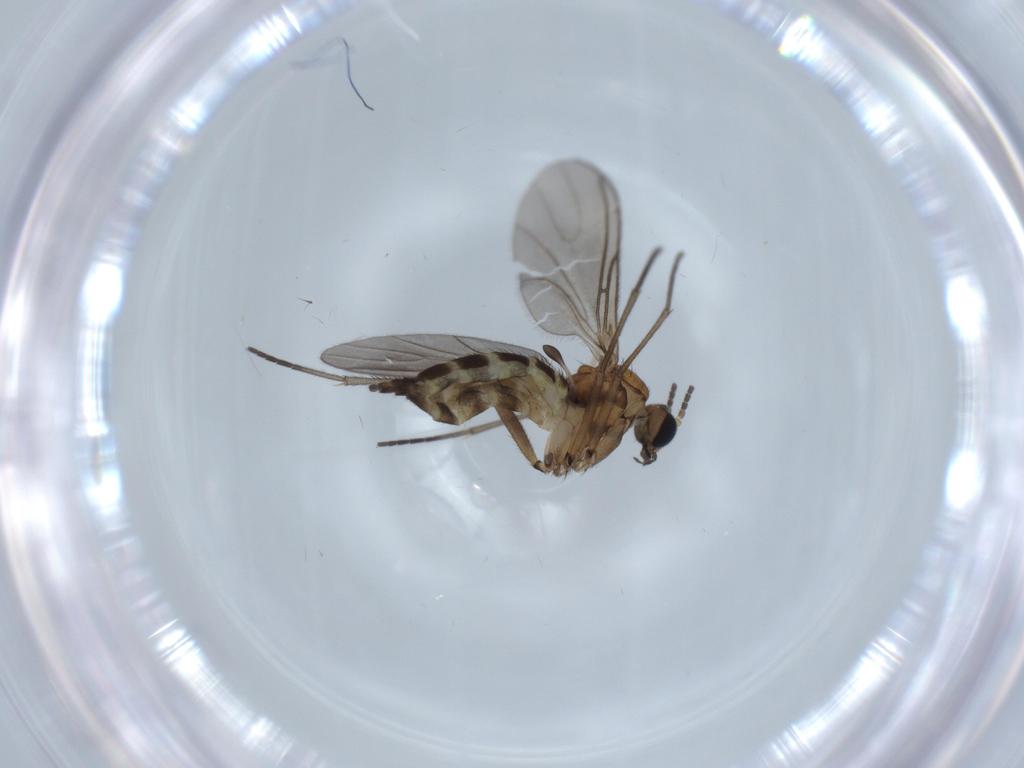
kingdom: Animalia
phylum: Arthropoda
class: Insecta
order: Diptera
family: Sciaridae
